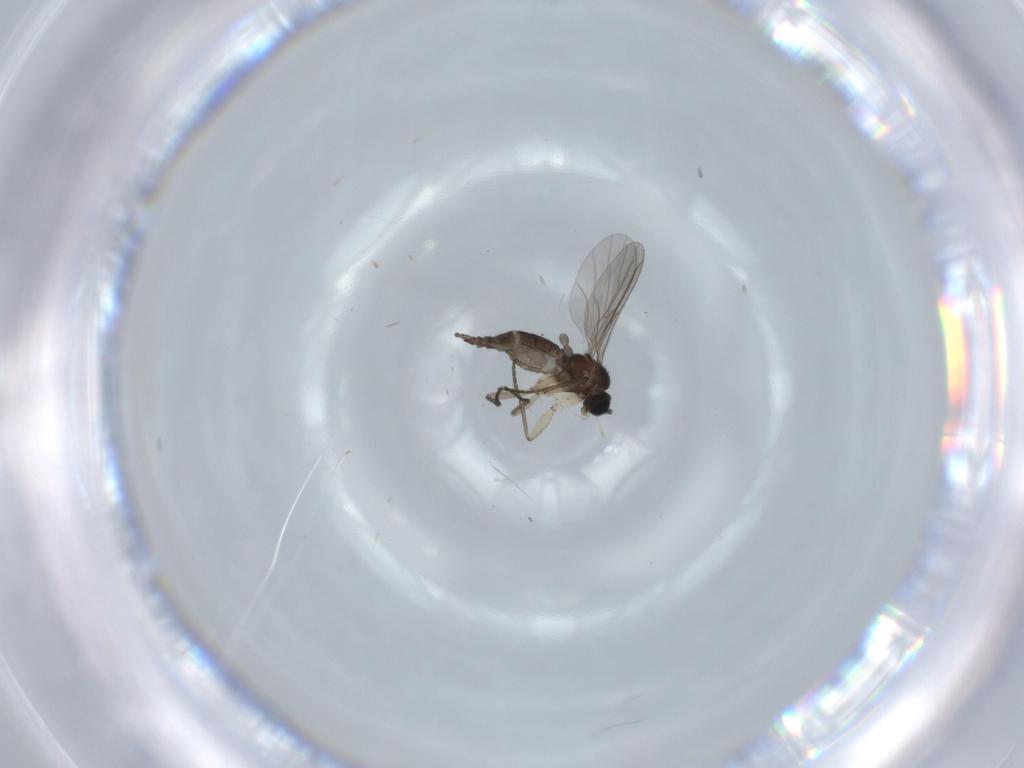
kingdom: Animalia
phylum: Arthropoda
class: Insecta
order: Diptera
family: Sciaridae
